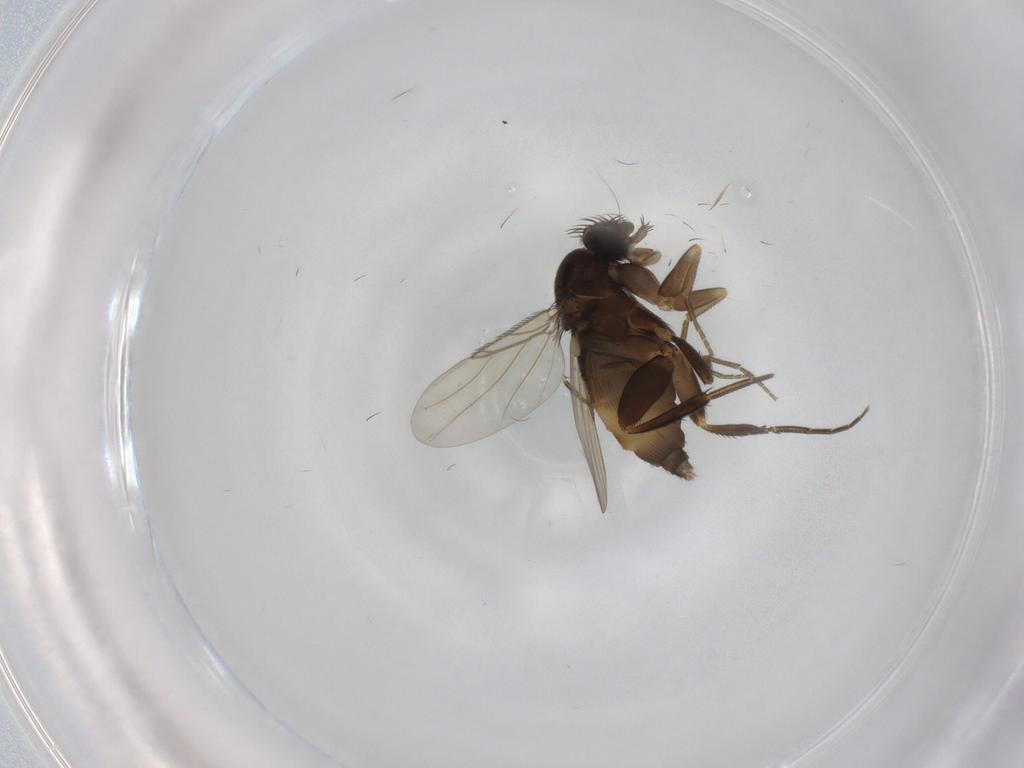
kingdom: Animalia
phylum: Arthropoda
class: Insecta
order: Diptera
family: Phoridae
